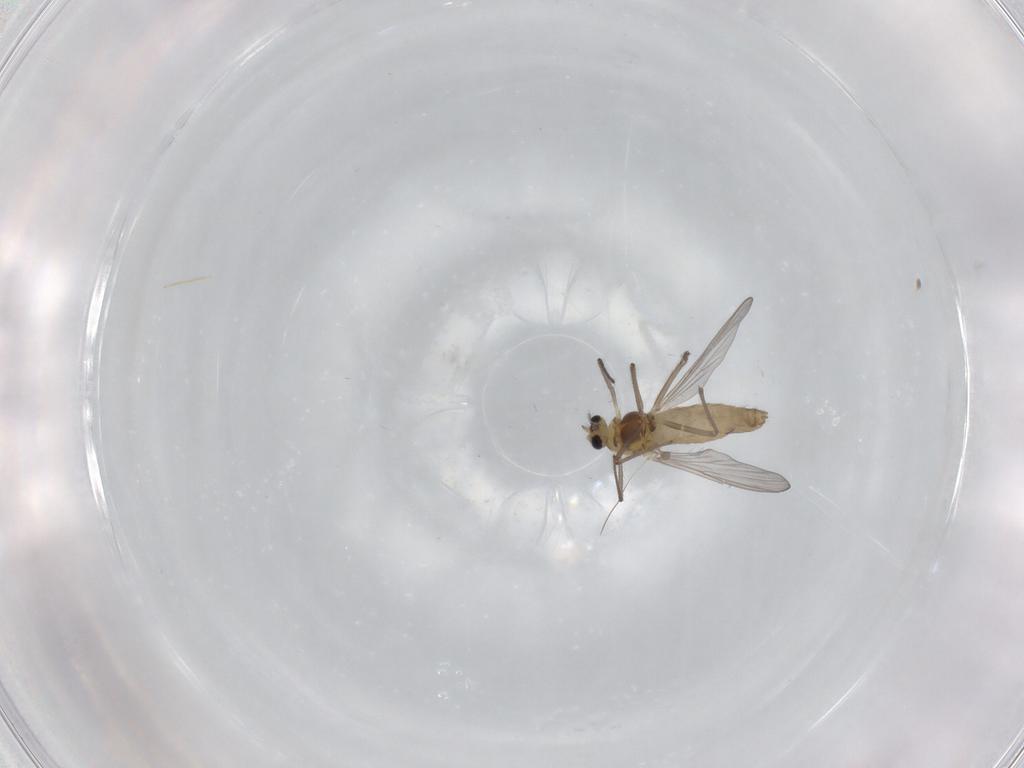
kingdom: Animalia
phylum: Arthropoda
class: Insecta
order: Diptera
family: Chironomidae
